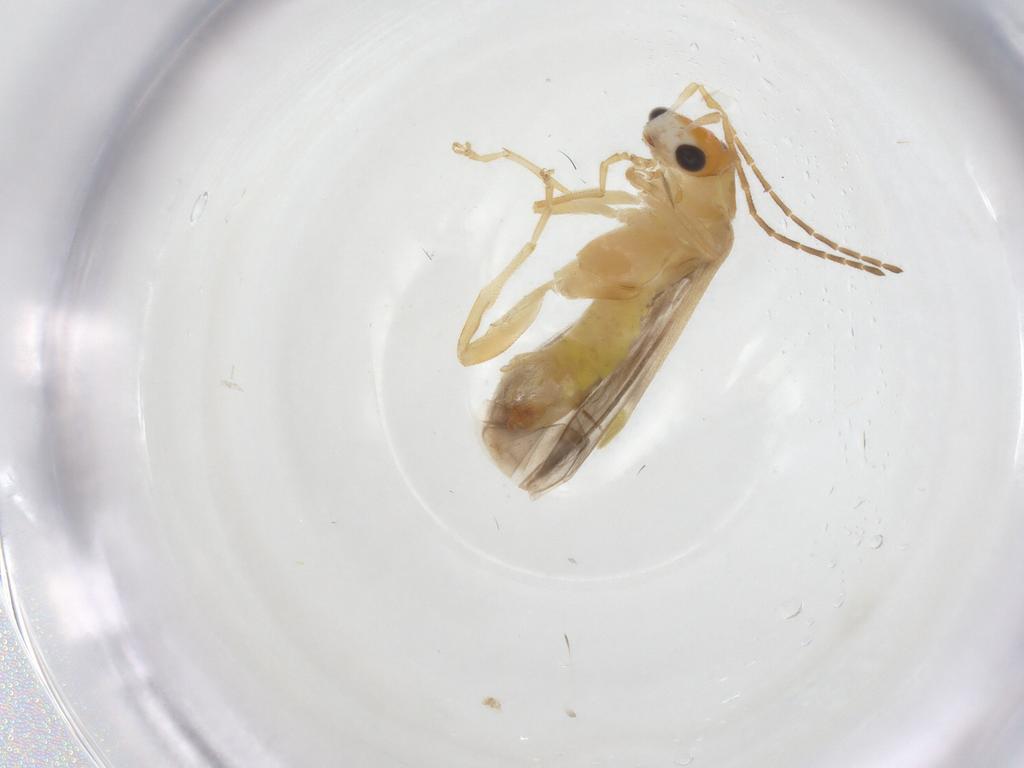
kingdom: Animalia
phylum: Arthropoda
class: Insecta
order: Coleoptera
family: Cantharidae
